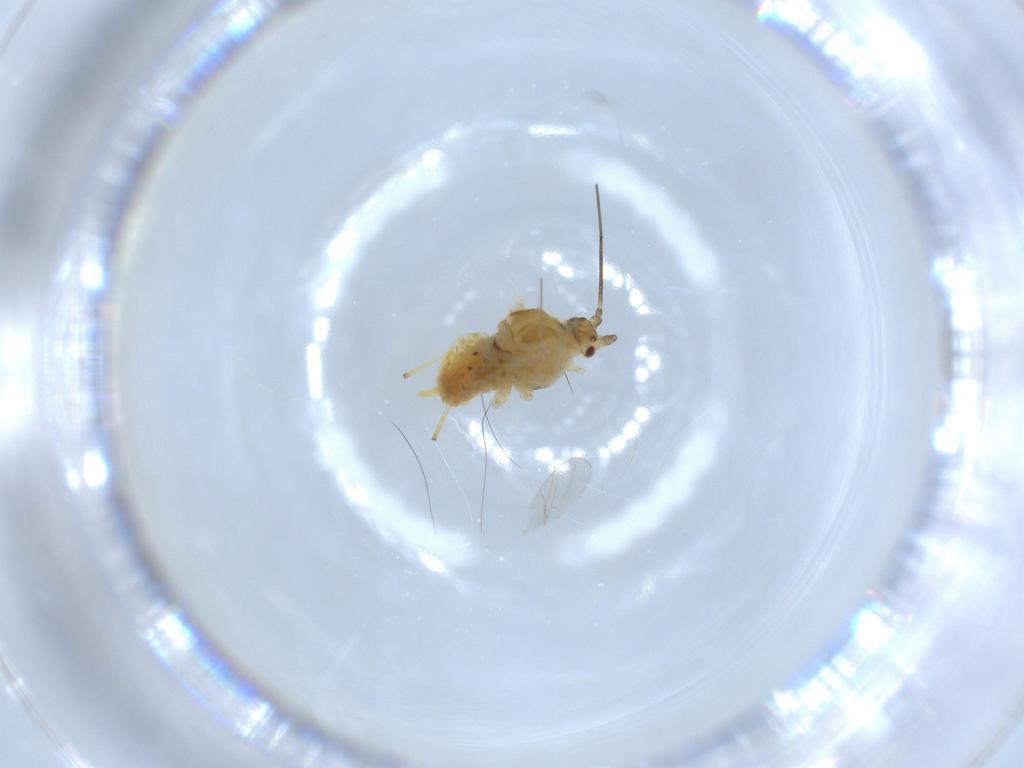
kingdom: Animalia
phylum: Arthropoda
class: Insecta
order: Hemiptera
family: Aphididae
